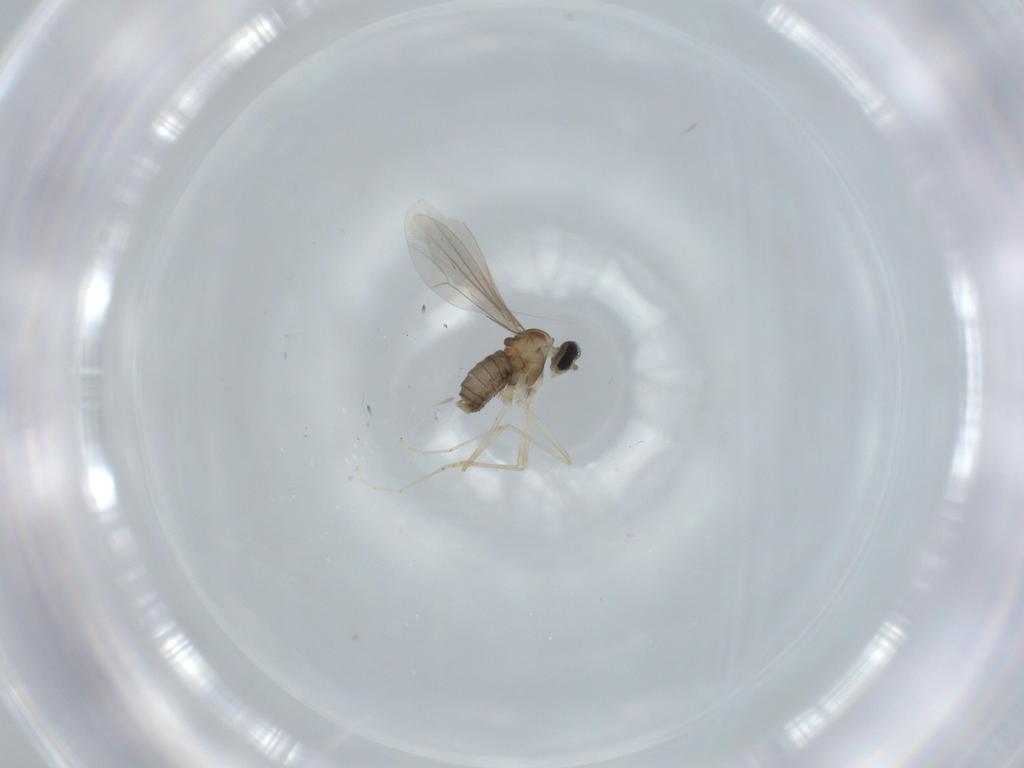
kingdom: Animalia
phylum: Arthropoda
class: Insecta
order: Diptera
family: Cecidomyiidae
